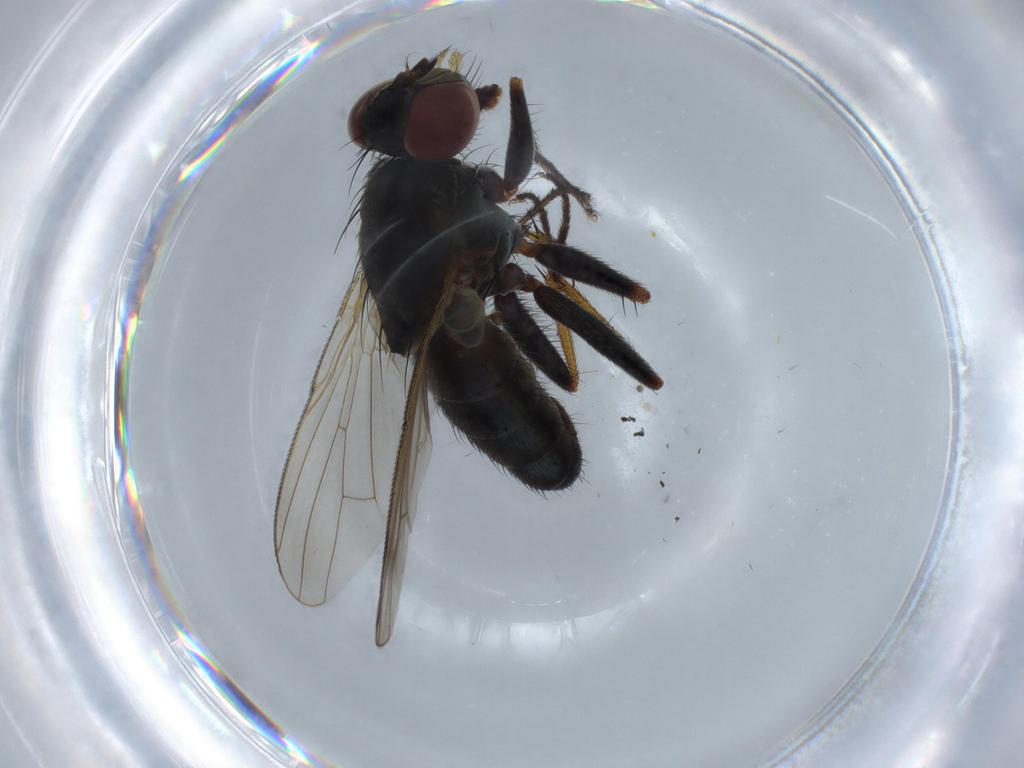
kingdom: Animalia
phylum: Arthropoda
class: Insecta
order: Diptera
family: Muscidae
